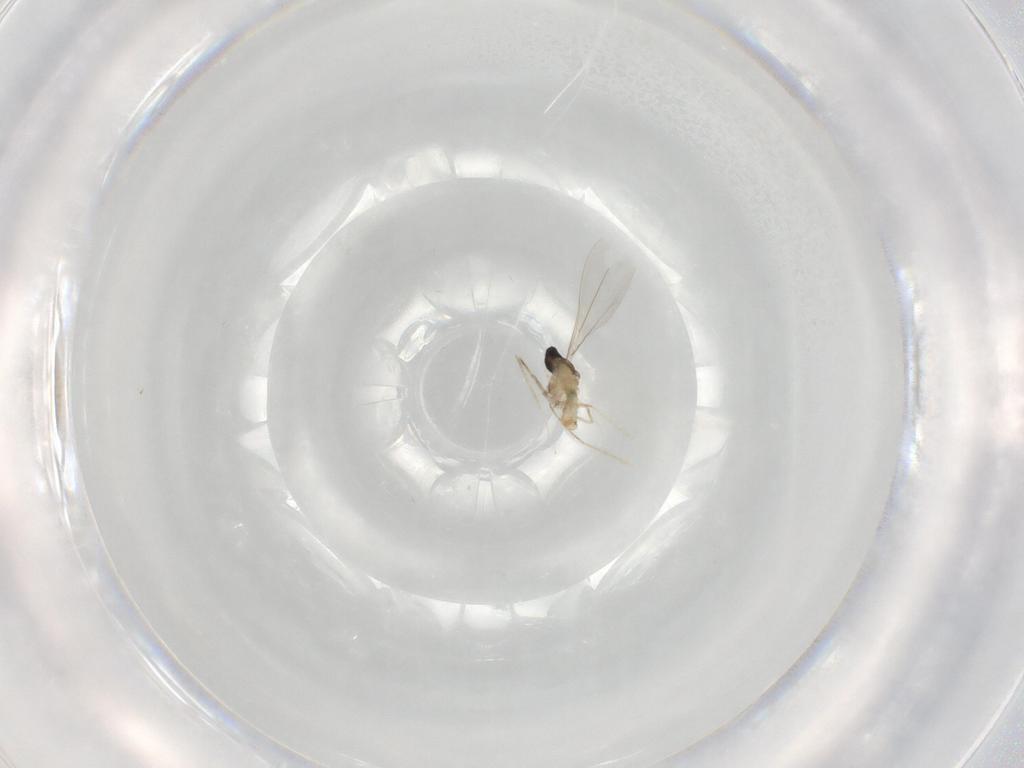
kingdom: Animalia
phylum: Arthropoda
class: Insecta
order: Diptera
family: Cecidomyiidae
